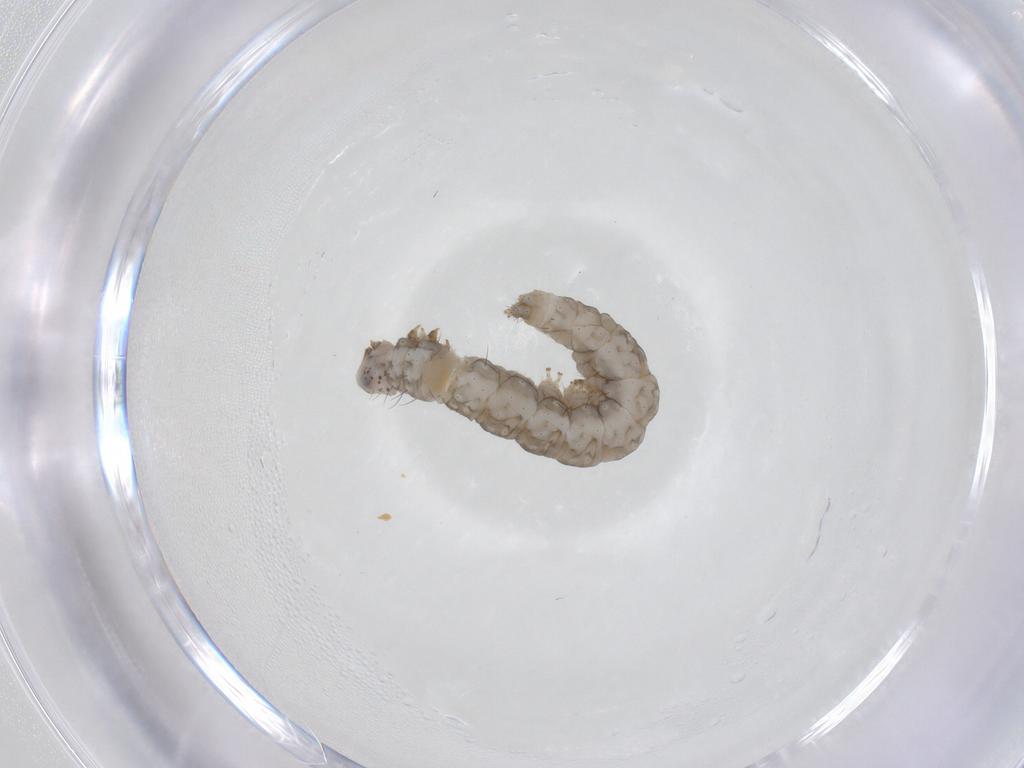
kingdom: Animalia
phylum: Arthropoda
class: Insecta
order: Lepidoptera
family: Bucculatricidae
